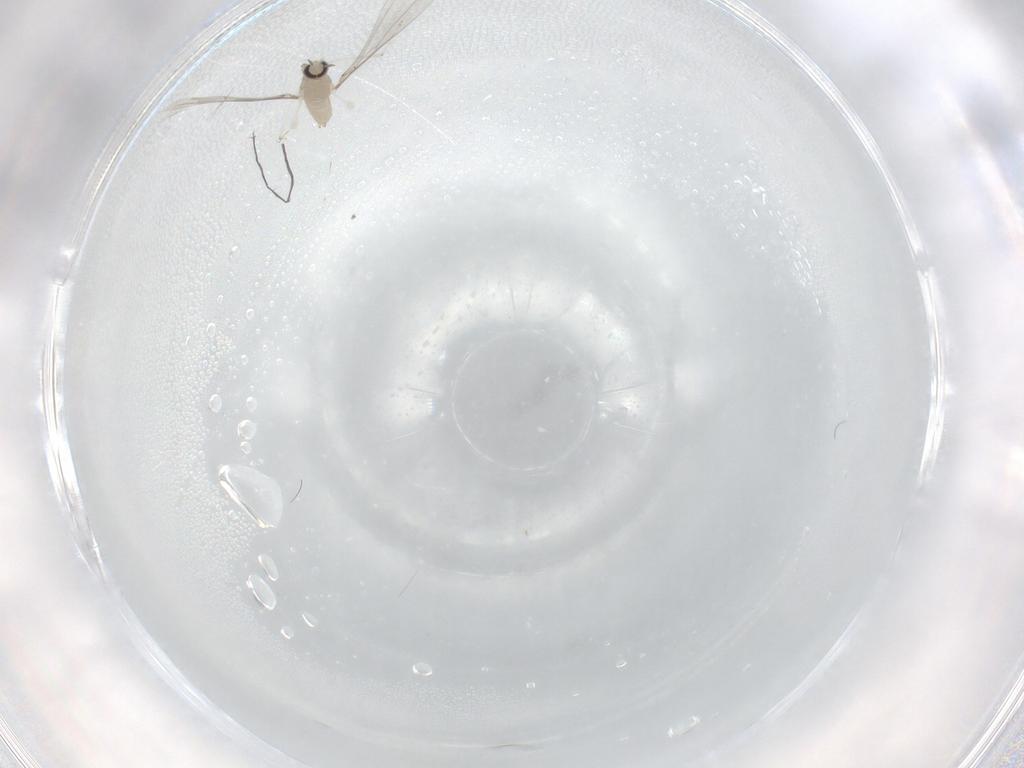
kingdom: Animalia
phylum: Arthropoda
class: Insecta
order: Diptera
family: Cecidomyiidae
